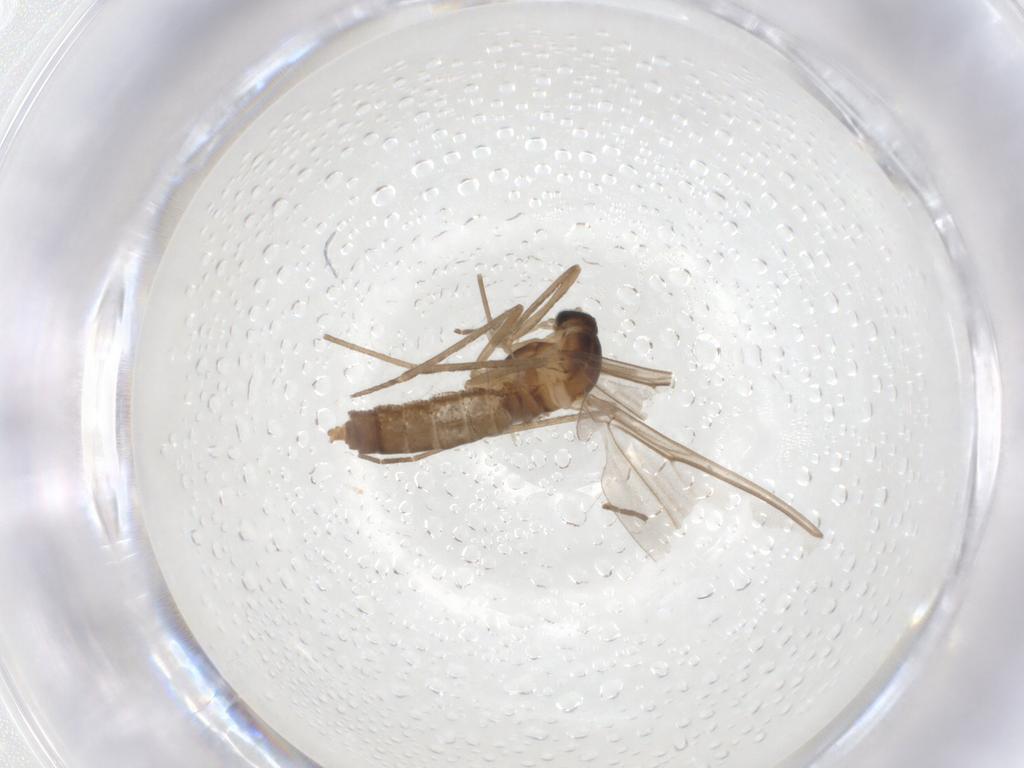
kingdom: Animalia
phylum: Arthropoda
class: Insecta
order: Diptera
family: Cecidomyiidae
